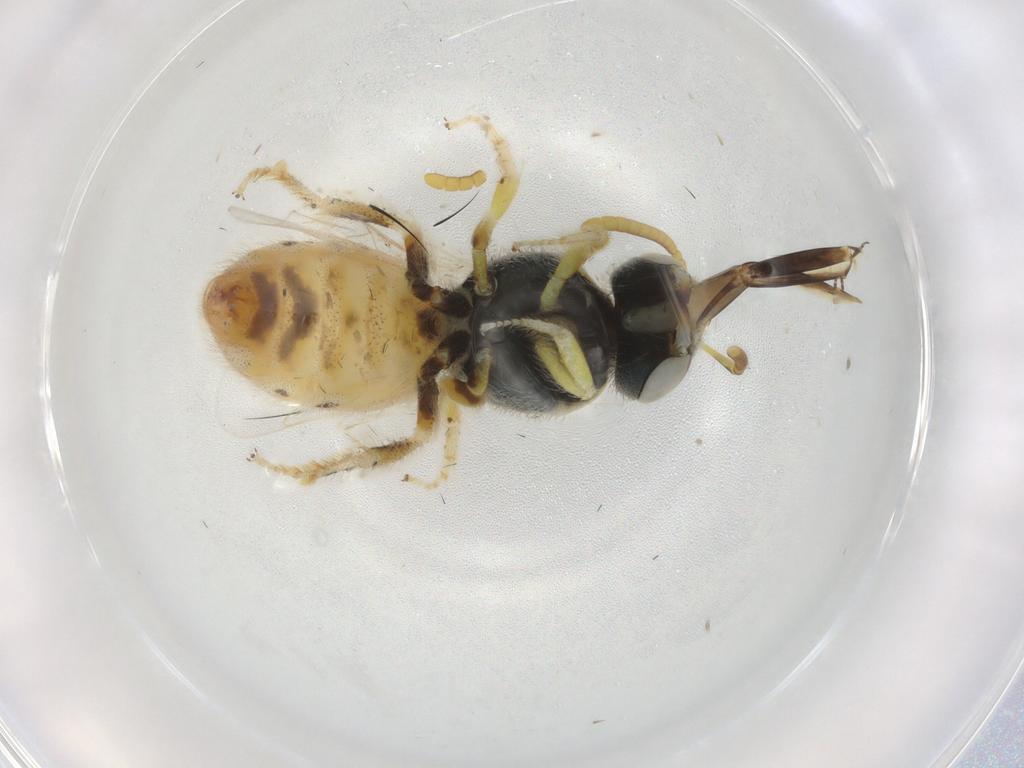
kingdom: Animalia
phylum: Arthropoda
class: Insecta
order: Hymenoptera
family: Halictidae
